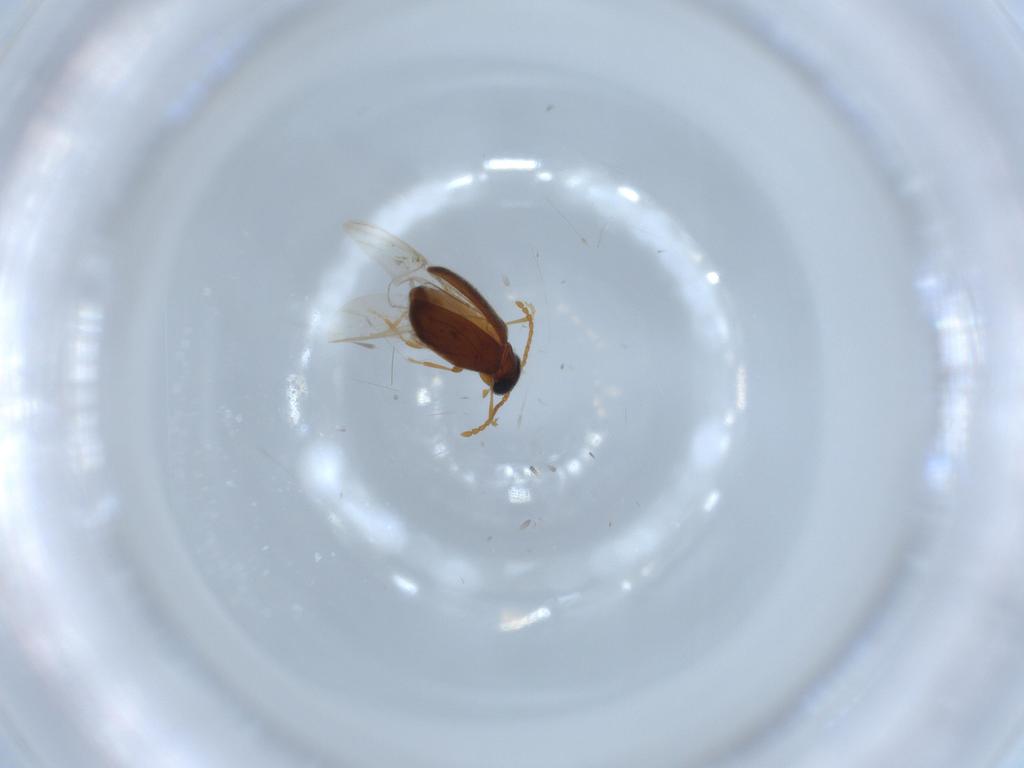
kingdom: Animalia
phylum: Arthropoda
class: Insecta
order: Coleoptera
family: Aderidae
